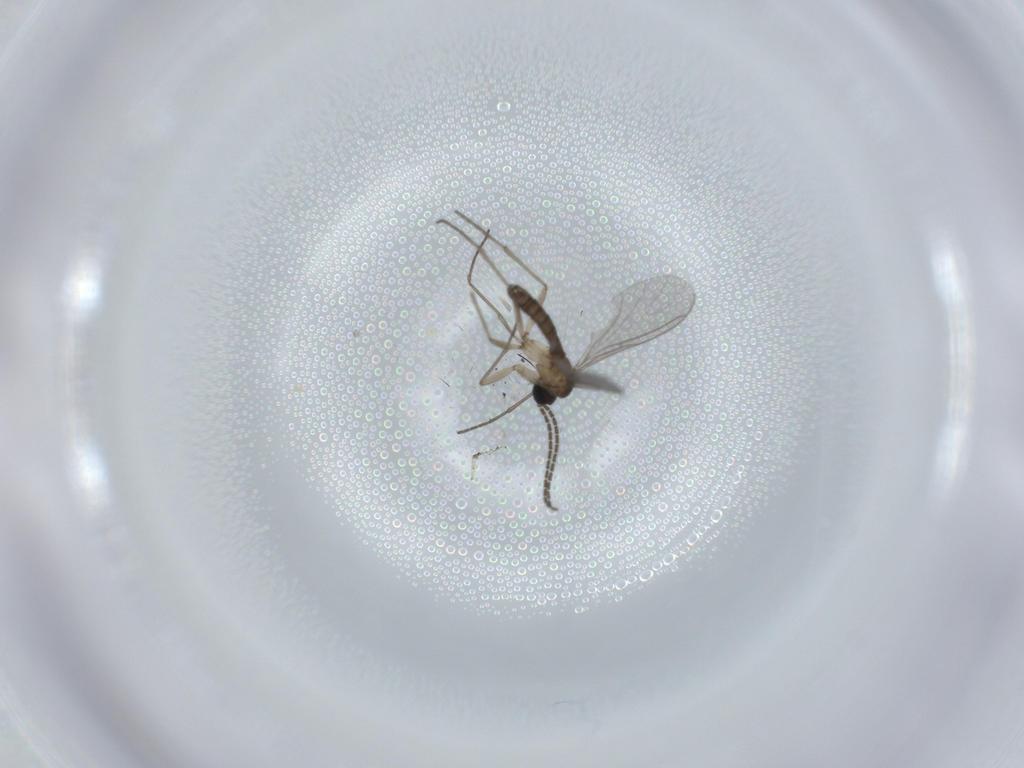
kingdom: Animalia
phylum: Arthropoda
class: Insecta
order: Diptera
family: Sciaridae
